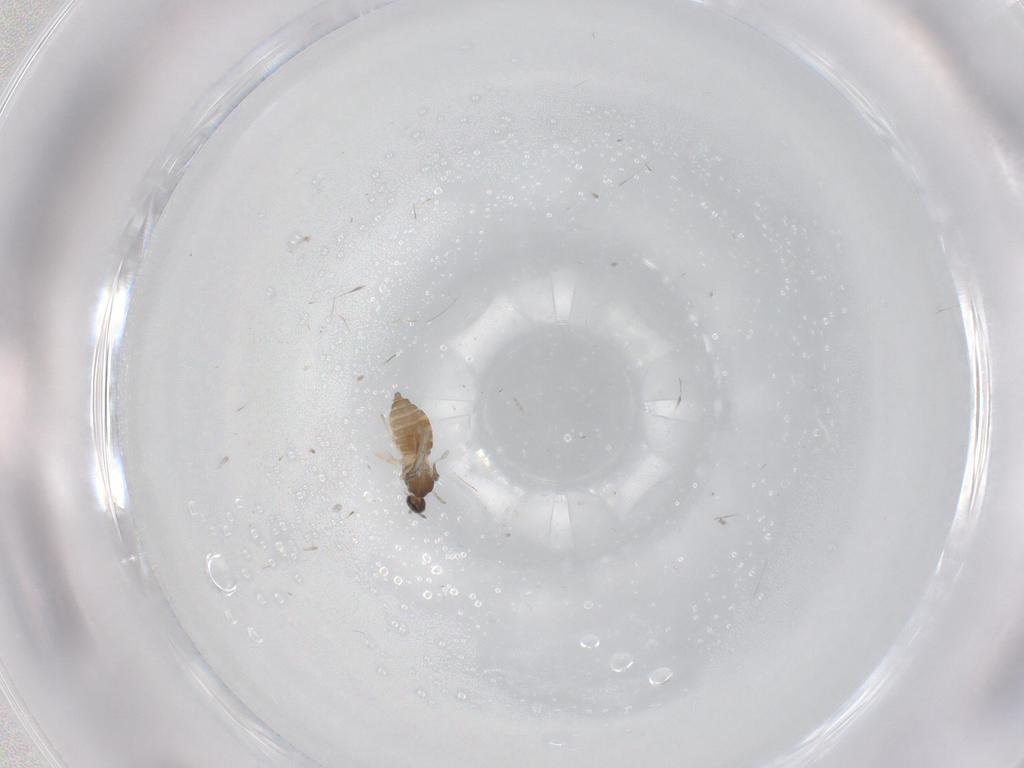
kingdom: Animalia
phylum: Arthropoda
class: Insecta
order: Diptera
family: Cecidomyiidae
